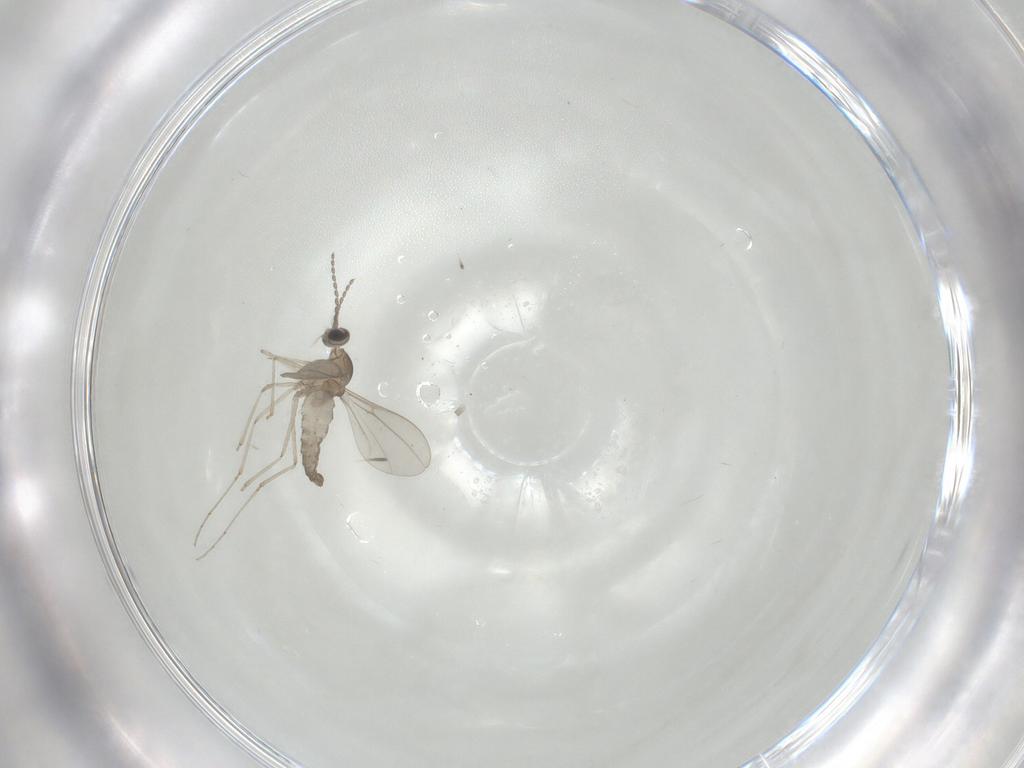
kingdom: Animalia
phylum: Arthropoda
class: Insecta
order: Diptera
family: Cecidomyiidae
